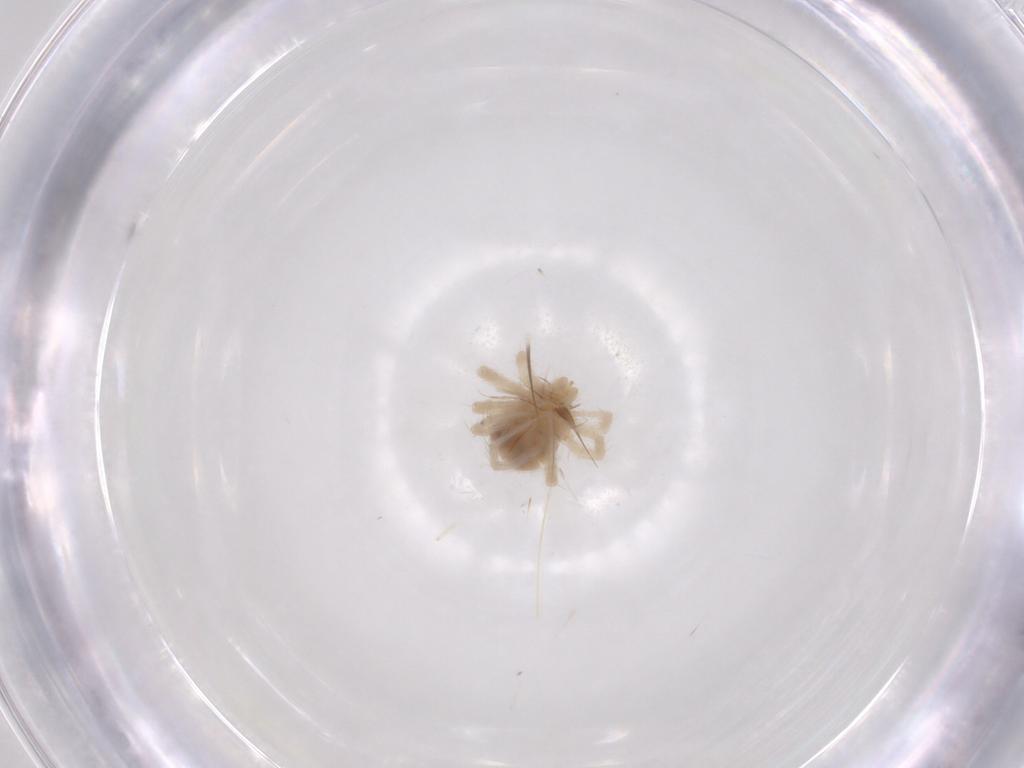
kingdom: Animalia
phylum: Arthropoda
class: Arachnida
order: Trombidiformes
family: Anystidae
